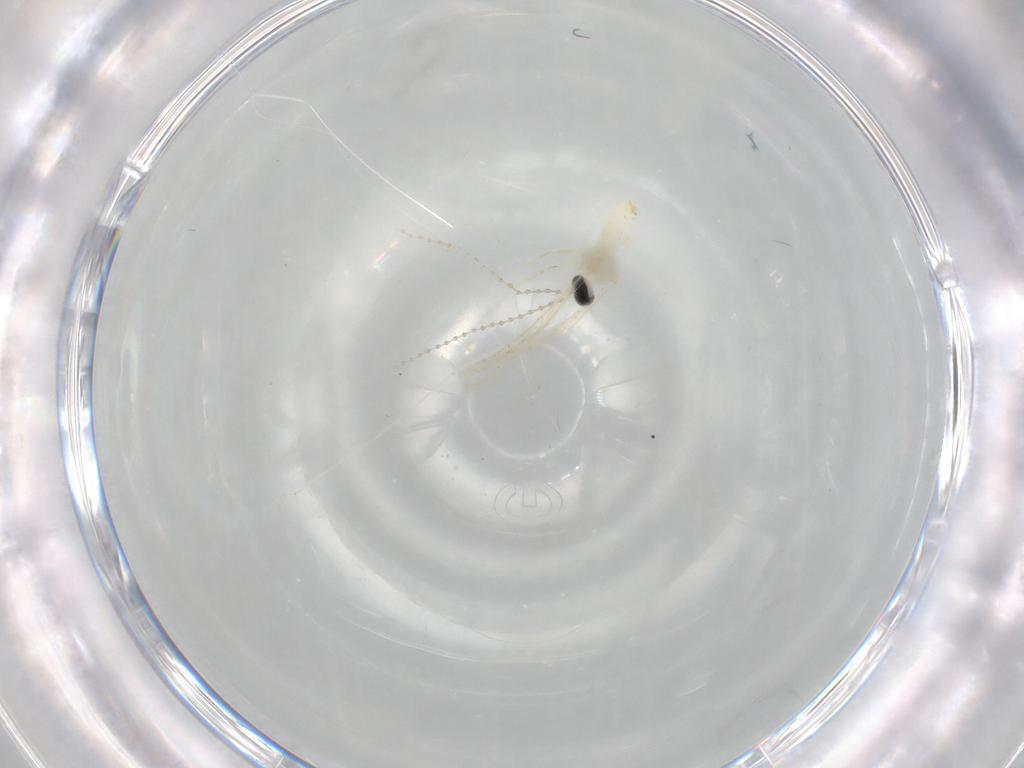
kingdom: Animalia
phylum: Arthropoda
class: Insecta
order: Diptera
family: Cecidomyiidae
